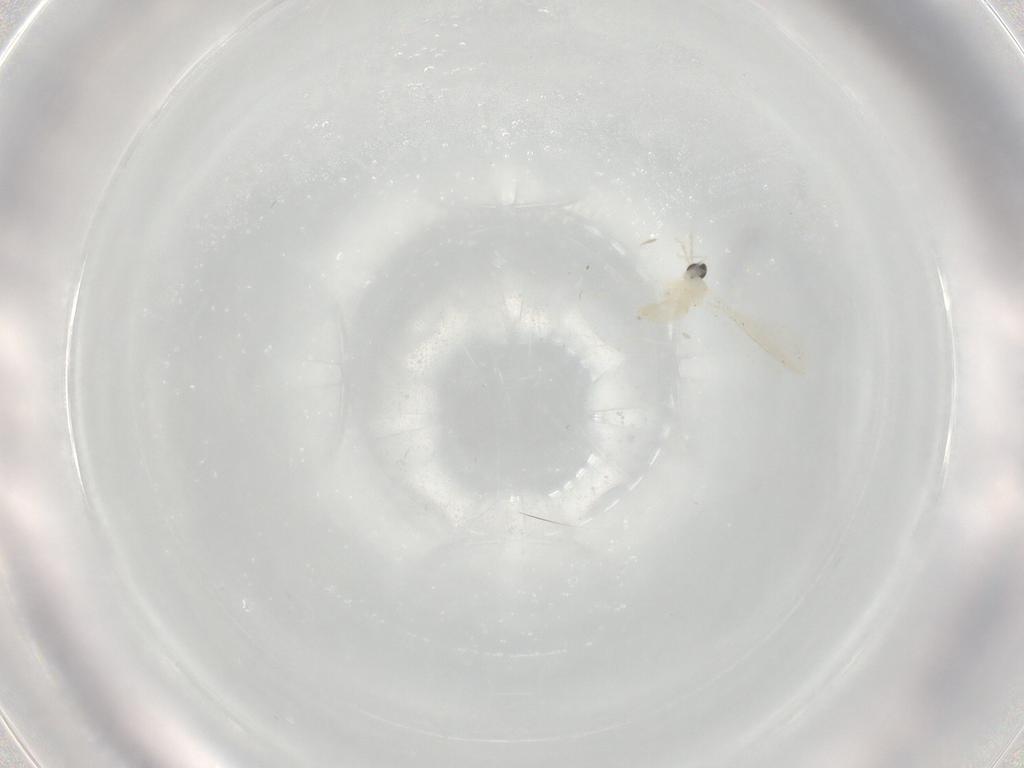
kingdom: Animalia
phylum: Arthropoda
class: Insecta
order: Diptera
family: Cecidomyiidae
